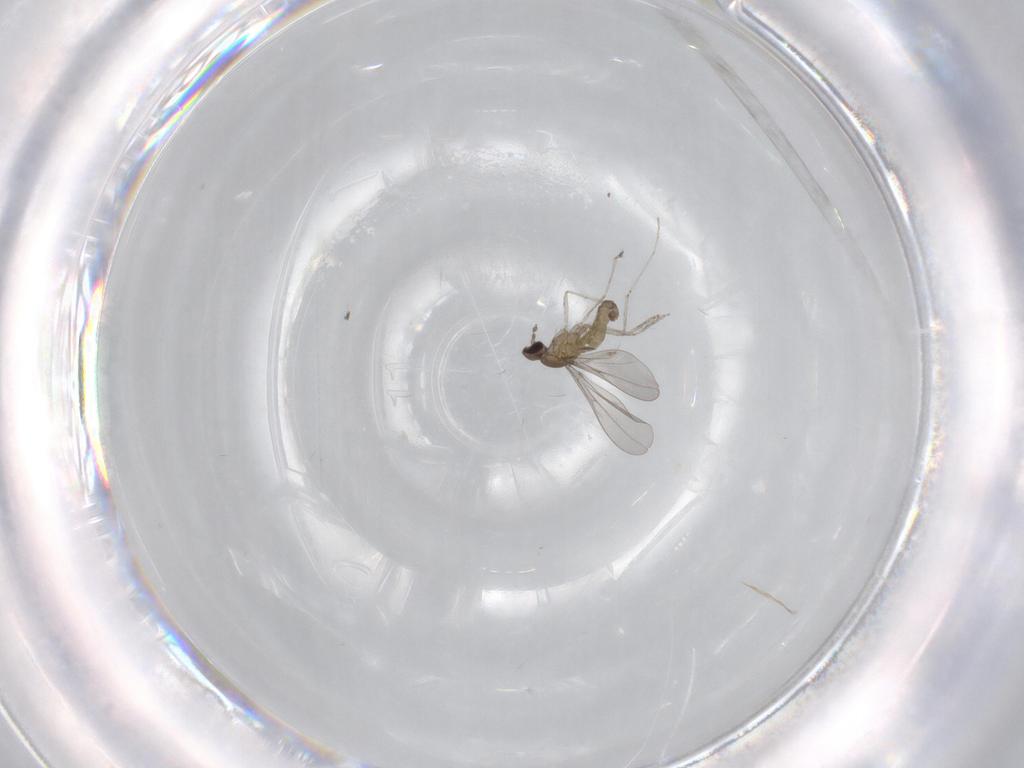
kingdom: Animalia
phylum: Arthropoda
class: Insecta
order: Diptera
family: Cecidomyiidae
